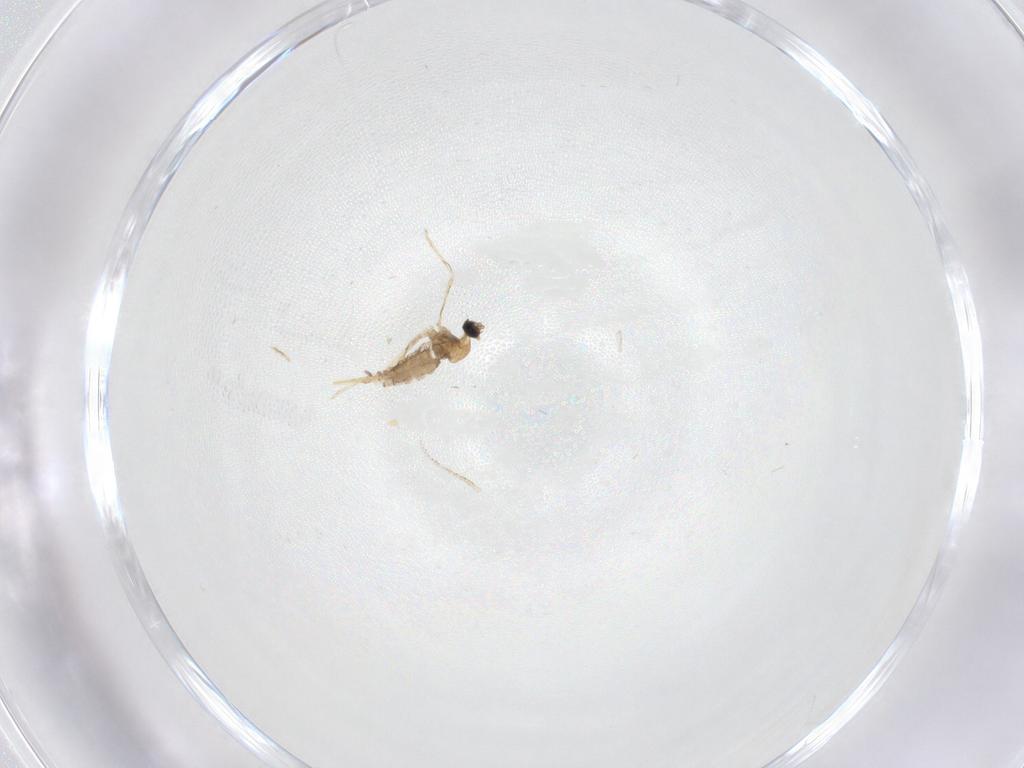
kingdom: Animalia
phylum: Arthropoda
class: Insecta
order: Diptera
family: Cecidomyiidae
